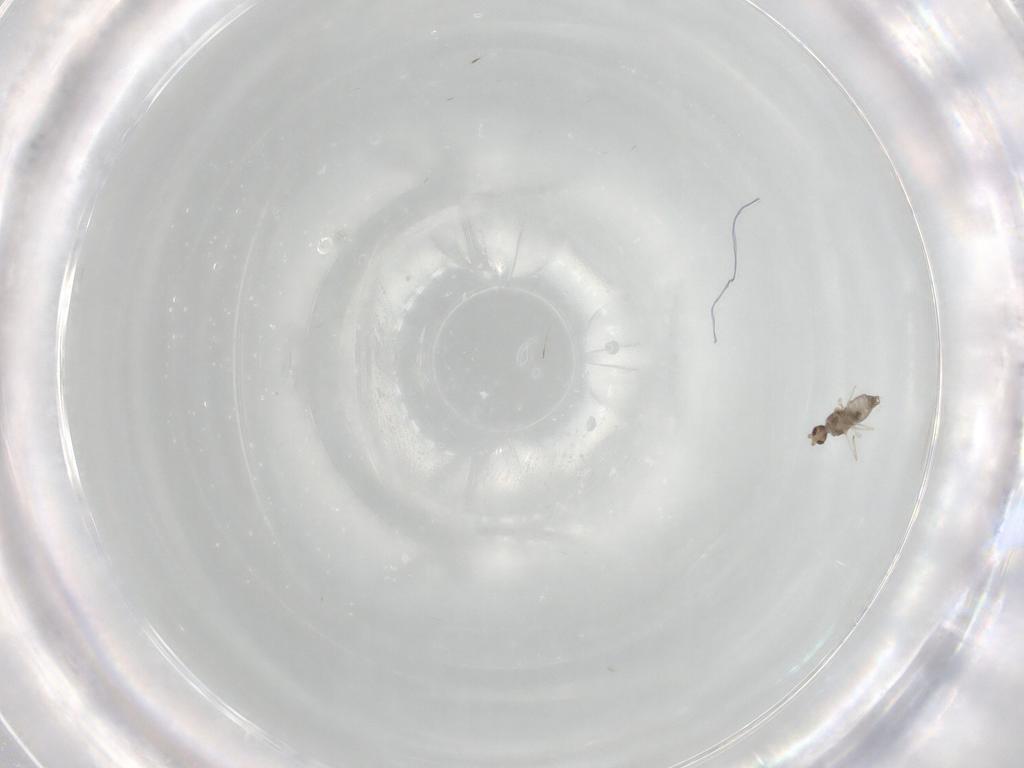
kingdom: Animalia
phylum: Arthropoda
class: Insecta
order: Diptera
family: Cecidomyiidae
